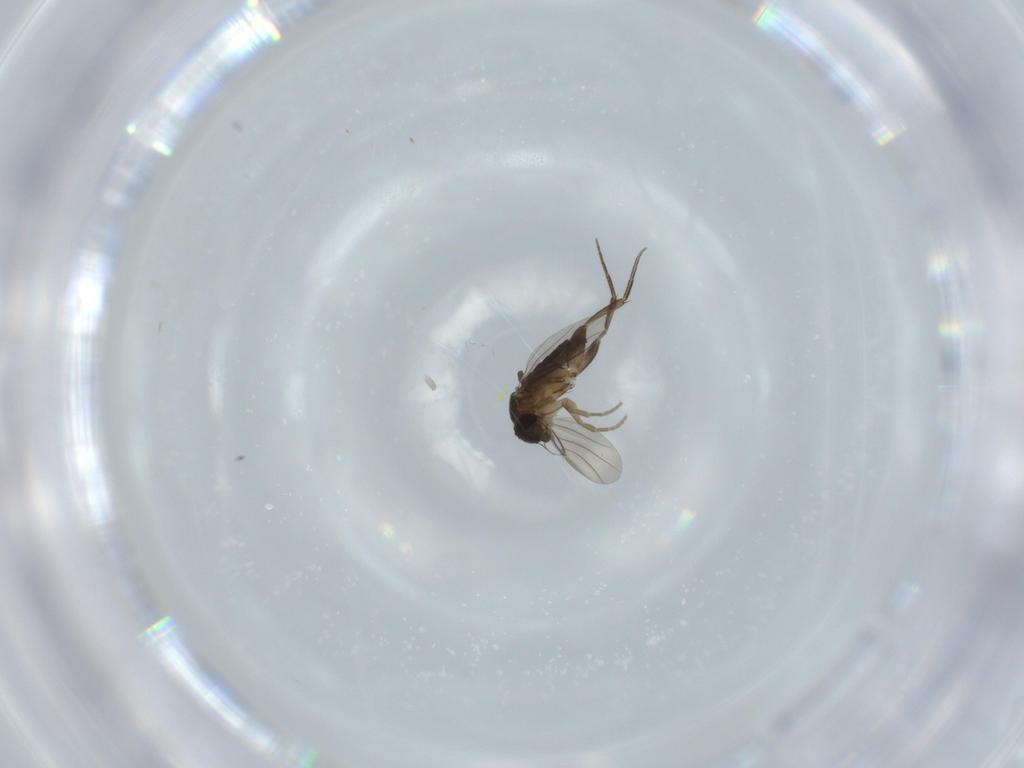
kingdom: Animalia
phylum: Arthropoda
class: Insecta
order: Diptera
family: Phoridae
